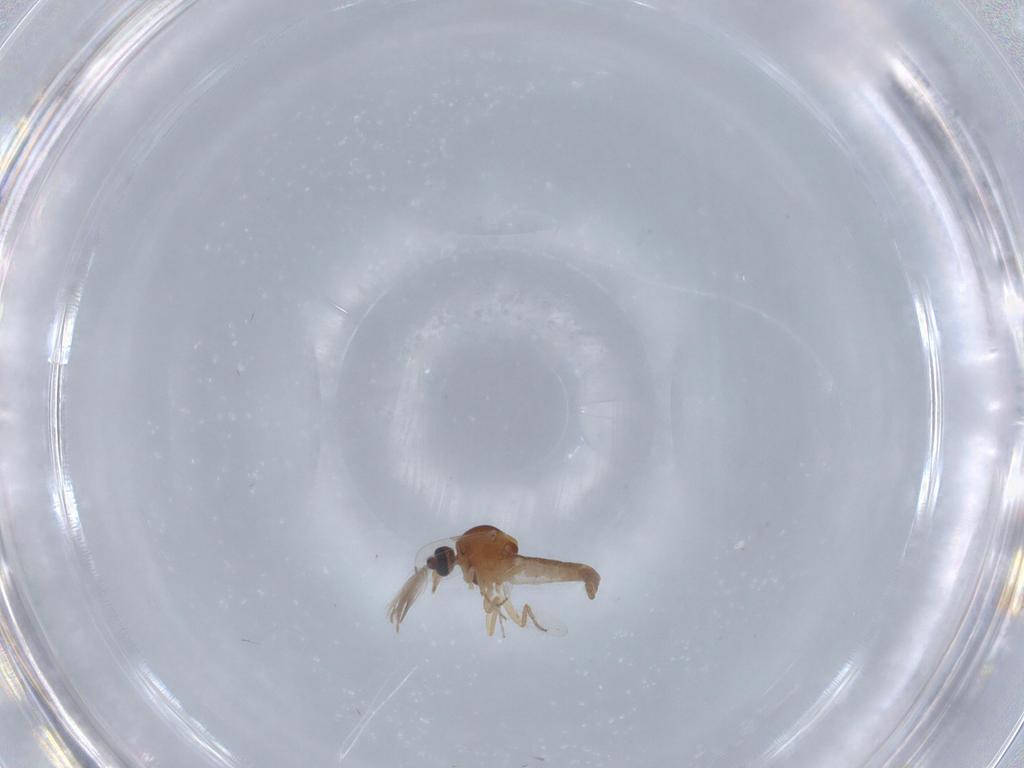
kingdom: Animalia
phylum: Arthropoda
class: Insecta
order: Diptera
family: Ceratopogonidae
